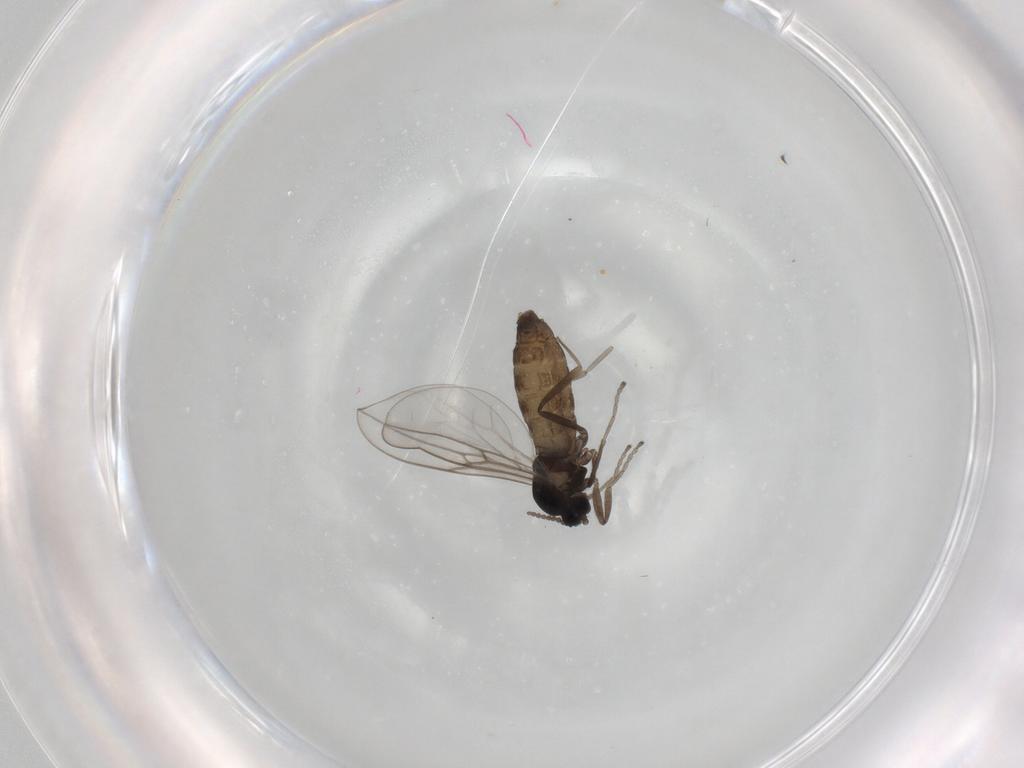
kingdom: Animalia
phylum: Arthropoda
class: Insecta
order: Diptera
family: Cecidomyiidae
